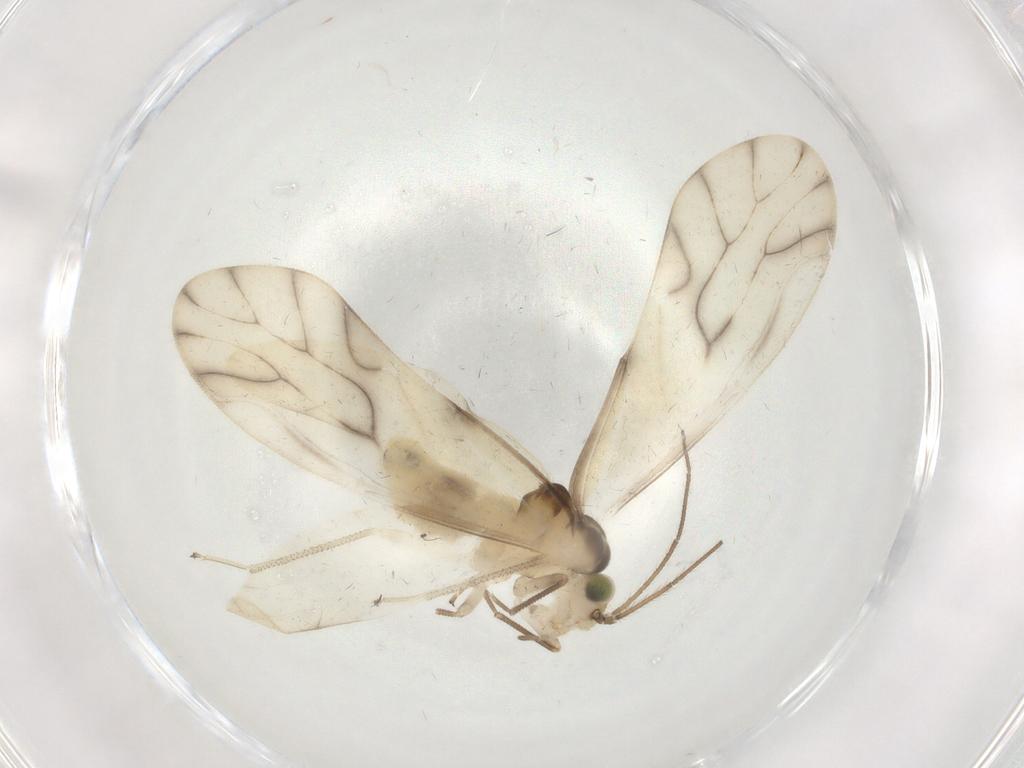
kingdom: Animalia
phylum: Arthropoda
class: Insecta
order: Psocodea
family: Caeciliusidae
